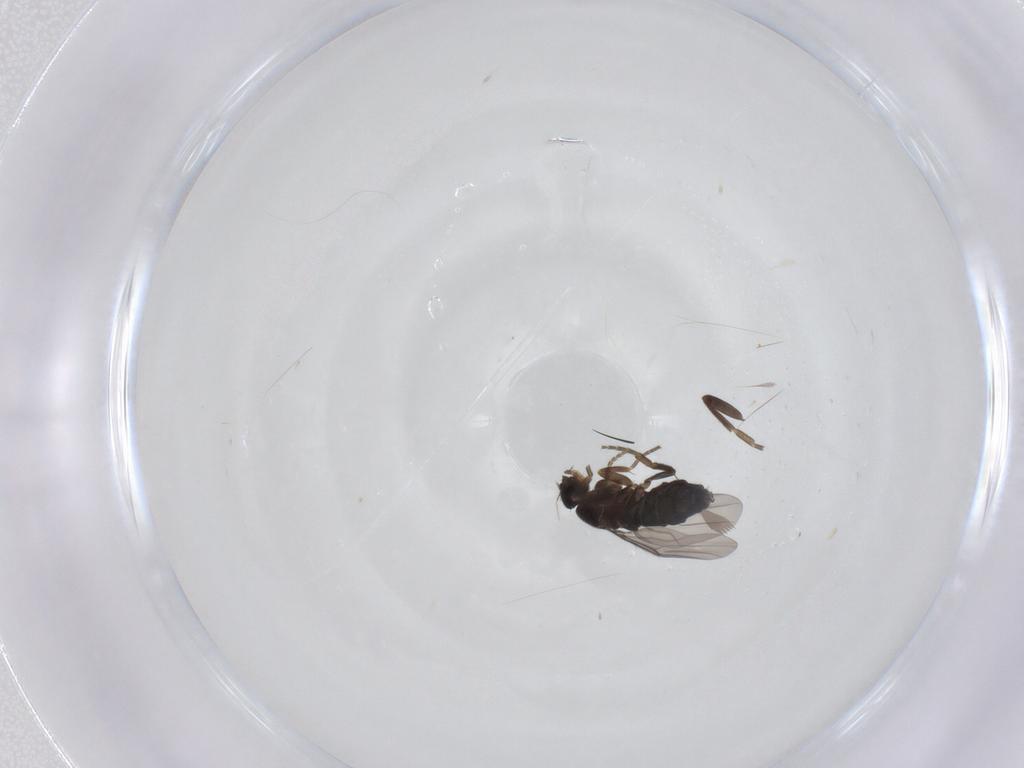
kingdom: Animalia
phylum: Arthropoda
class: Insecta
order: Diptera
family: Phoridae
